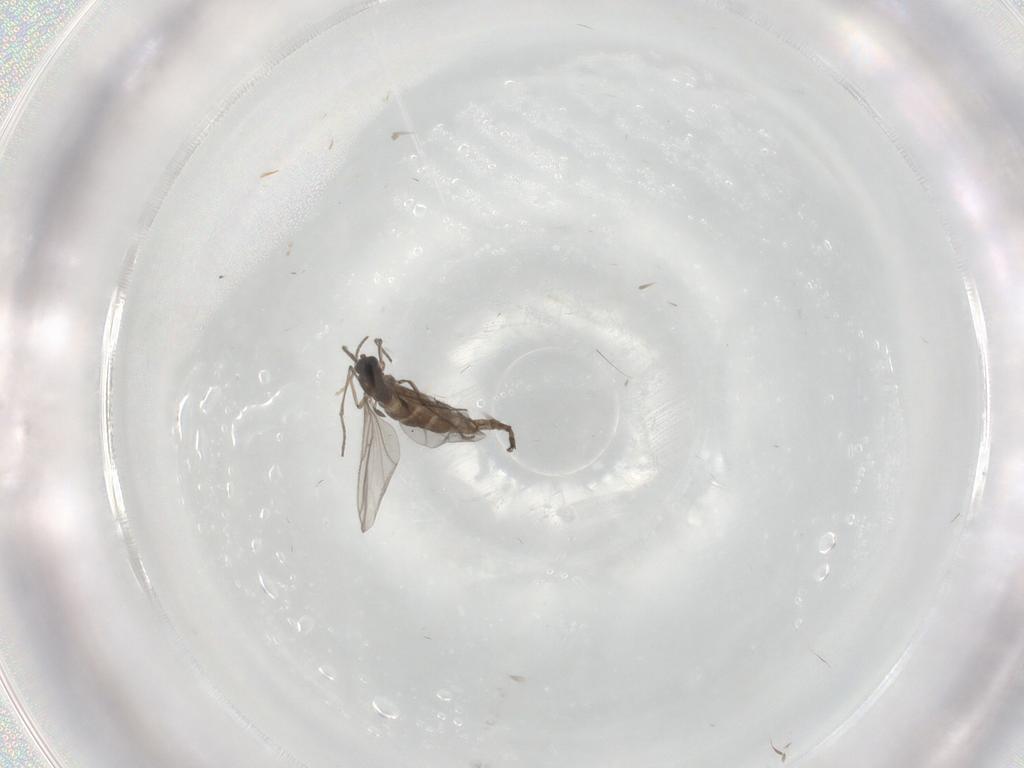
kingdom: Animalia
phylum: Arthropoda
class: Insecta
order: Diptera
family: Cecidomyiidae
